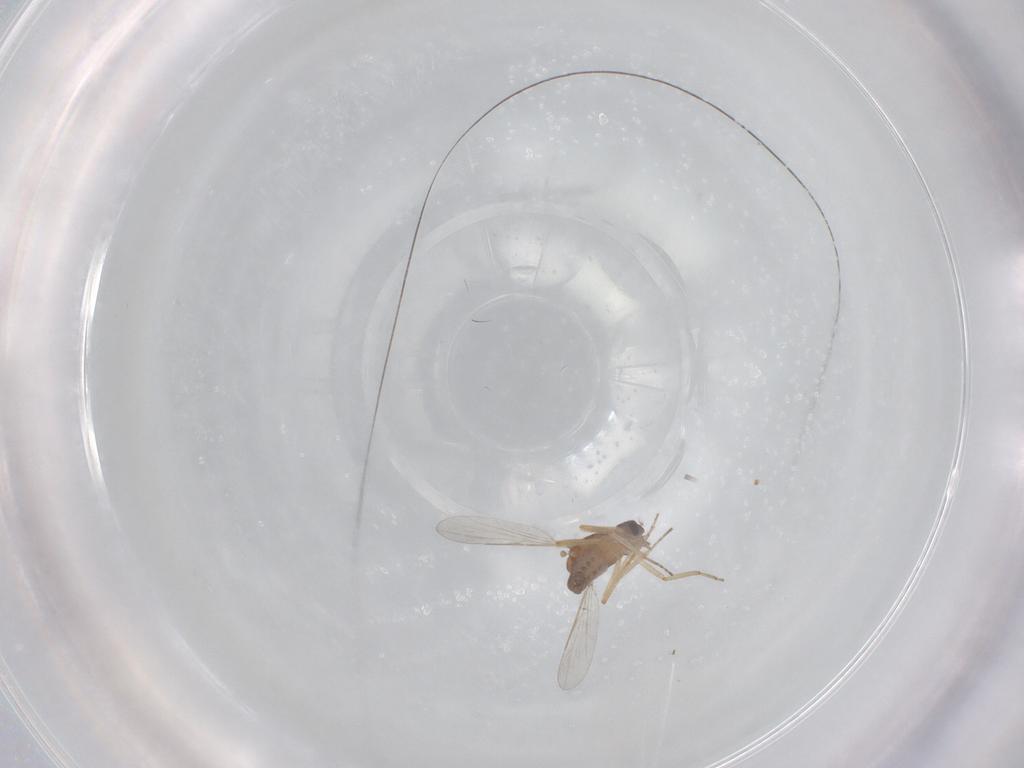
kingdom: Animalia
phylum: Arthropoda
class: Insecta
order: Diptera
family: Ceratopogonidae
